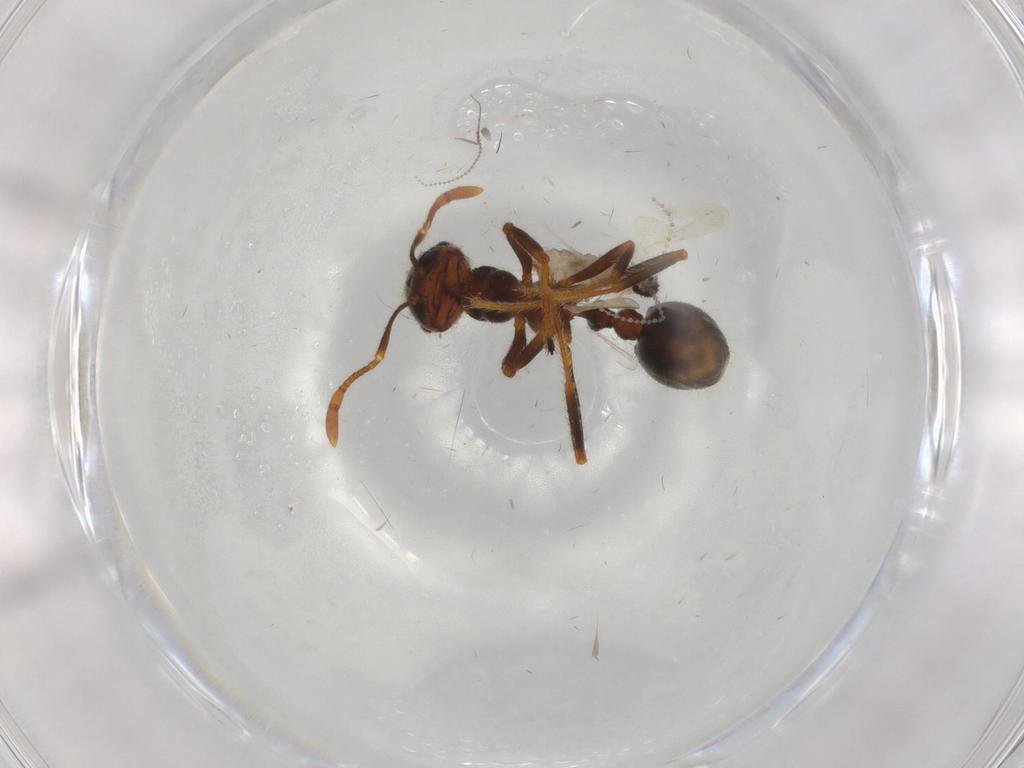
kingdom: Animalia
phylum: Arthropoda
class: Insecta
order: Hymenoptera
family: Formicidae
